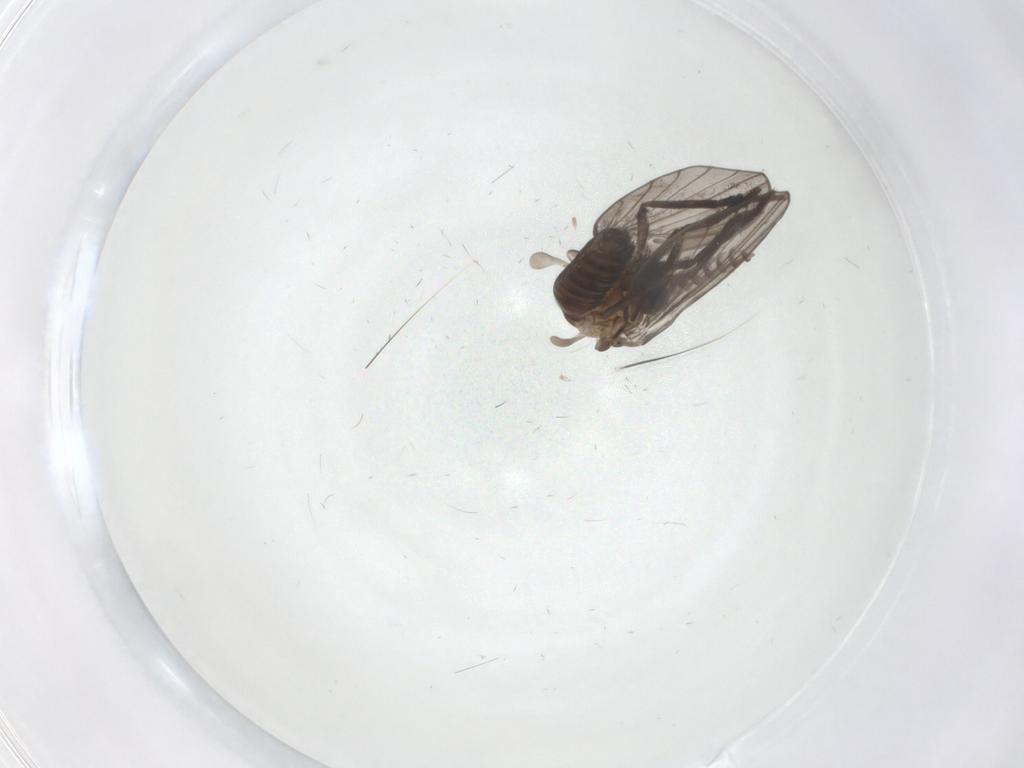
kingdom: Animalia
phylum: Arthropoda
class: Insecta
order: Diptera
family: Psychodidae
